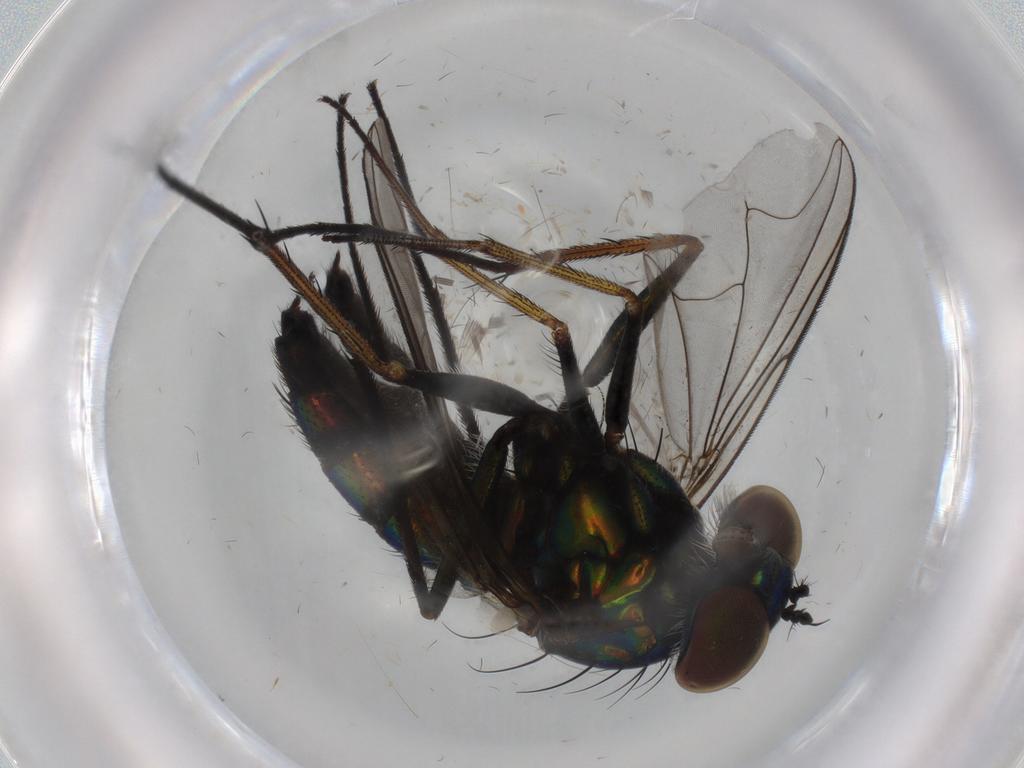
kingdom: Animalia
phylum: Arthropoda
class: Insecta
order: Diptera
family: Dolichopodidae
